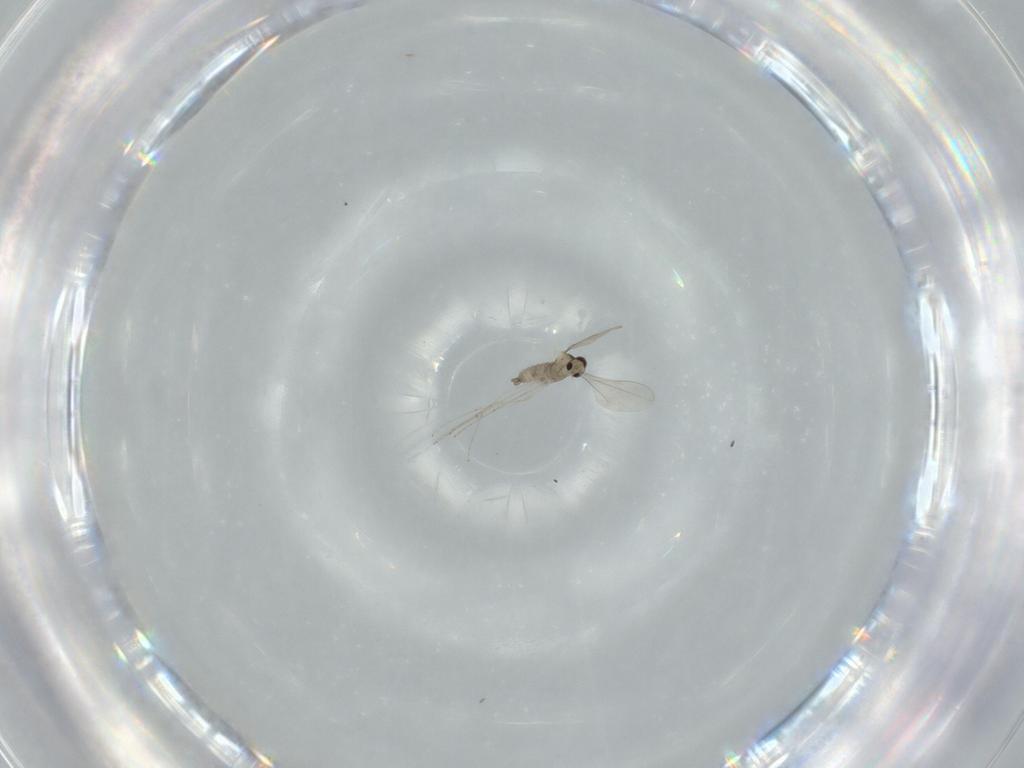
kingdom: Animalia
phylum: Arthropoda
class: Insecta
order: Diptera
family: Cecidomyiidae
